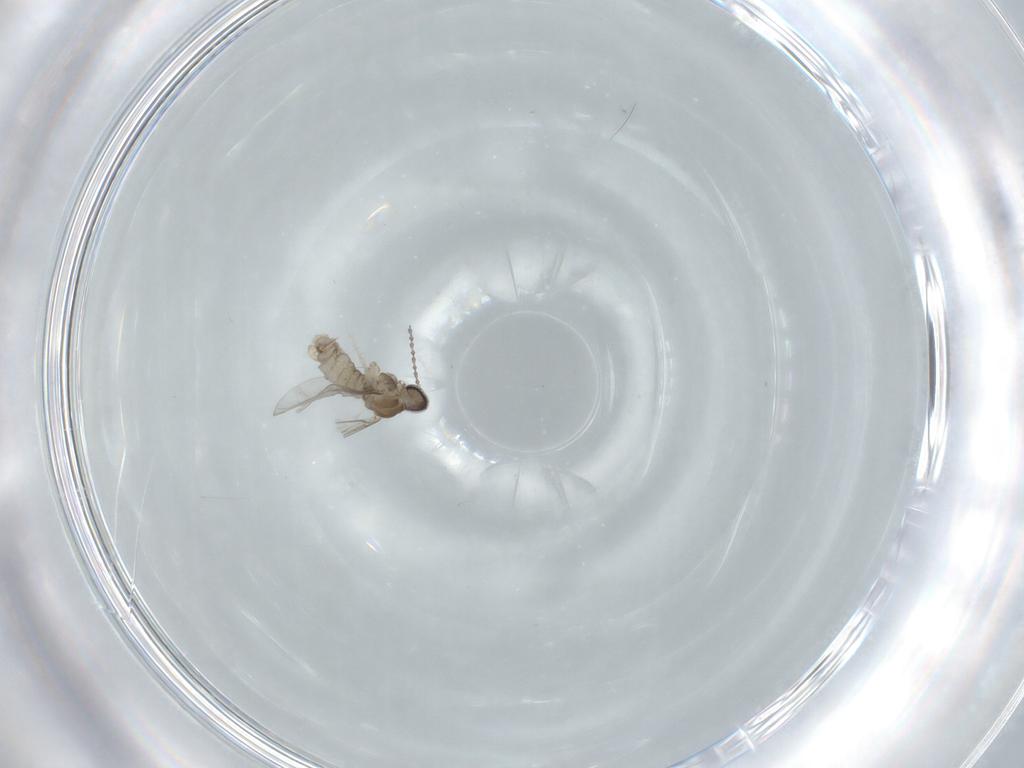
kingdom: Animalia
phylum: Arthropoda
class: Insecta
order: Diptera
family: Cecidomyiidae
